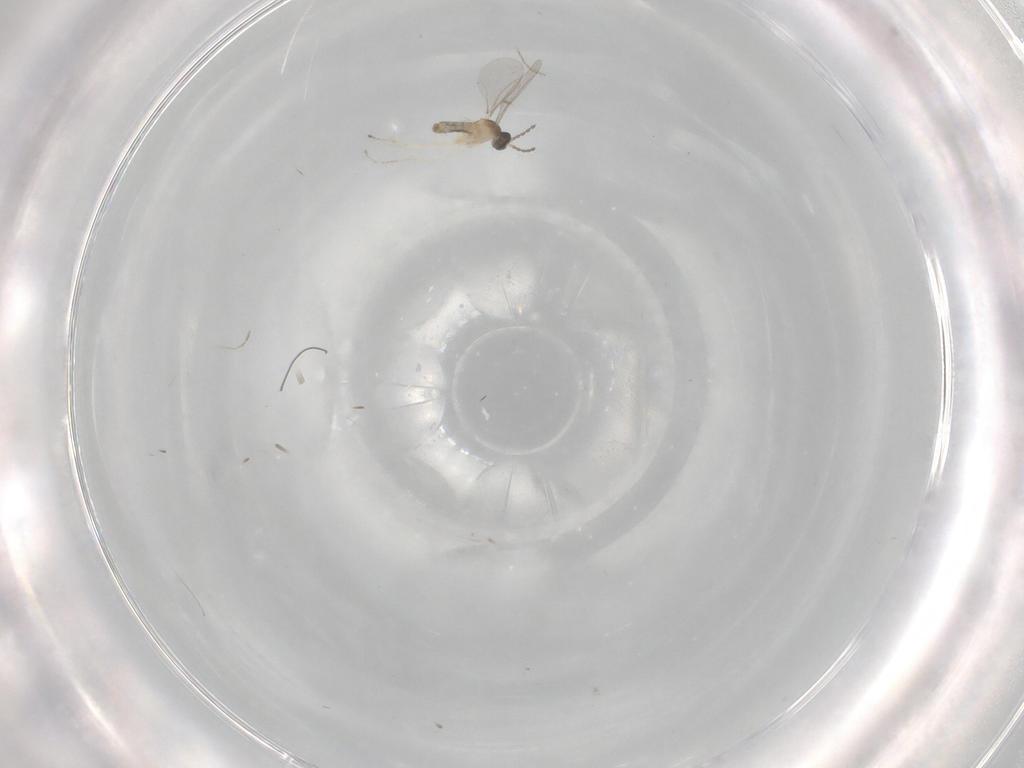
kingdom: Animalia
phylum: Arthropoda
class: Insecta
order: Diptera
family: Cecidomyiidae
